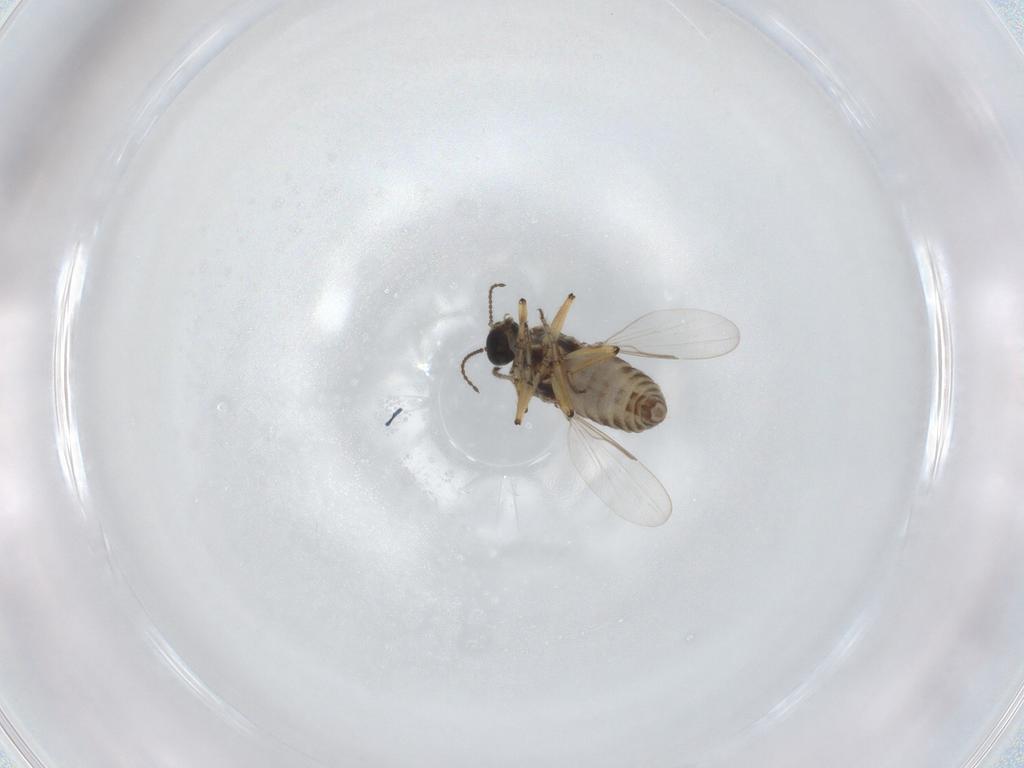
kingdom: Animalia
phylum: Arthropoda
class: Insecta
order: Diptera
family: Ceratopogonidae
